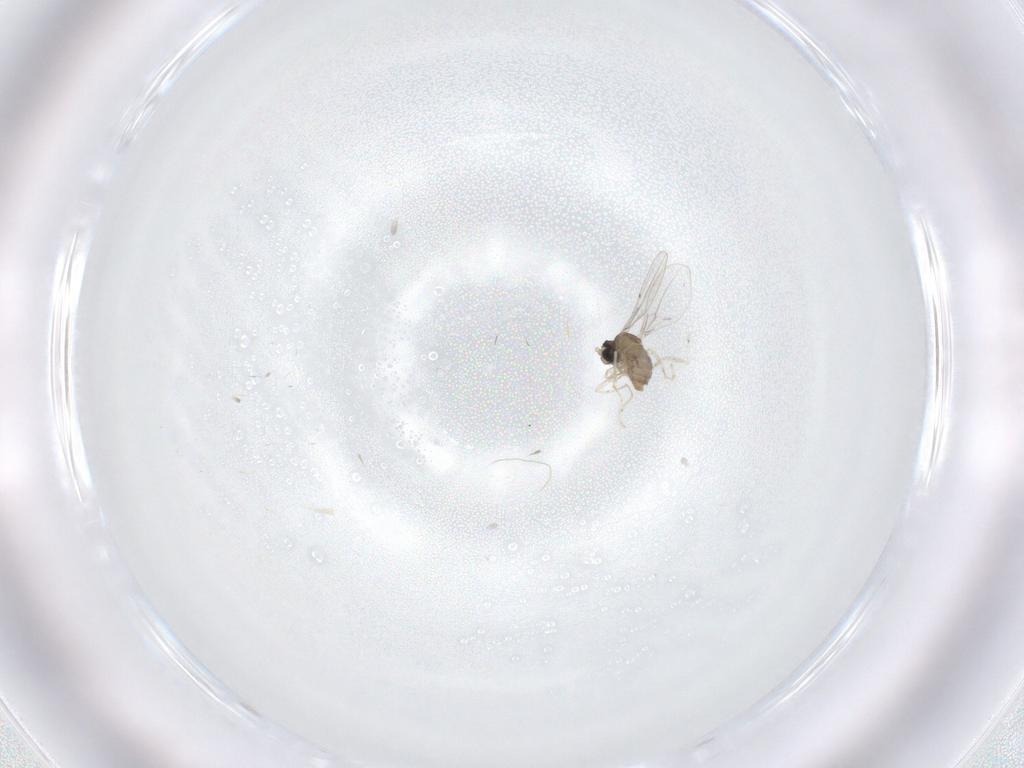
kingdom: Animalia
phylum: Arthropoda
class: Insecta
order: Diptera
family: Cecidomyiidae
